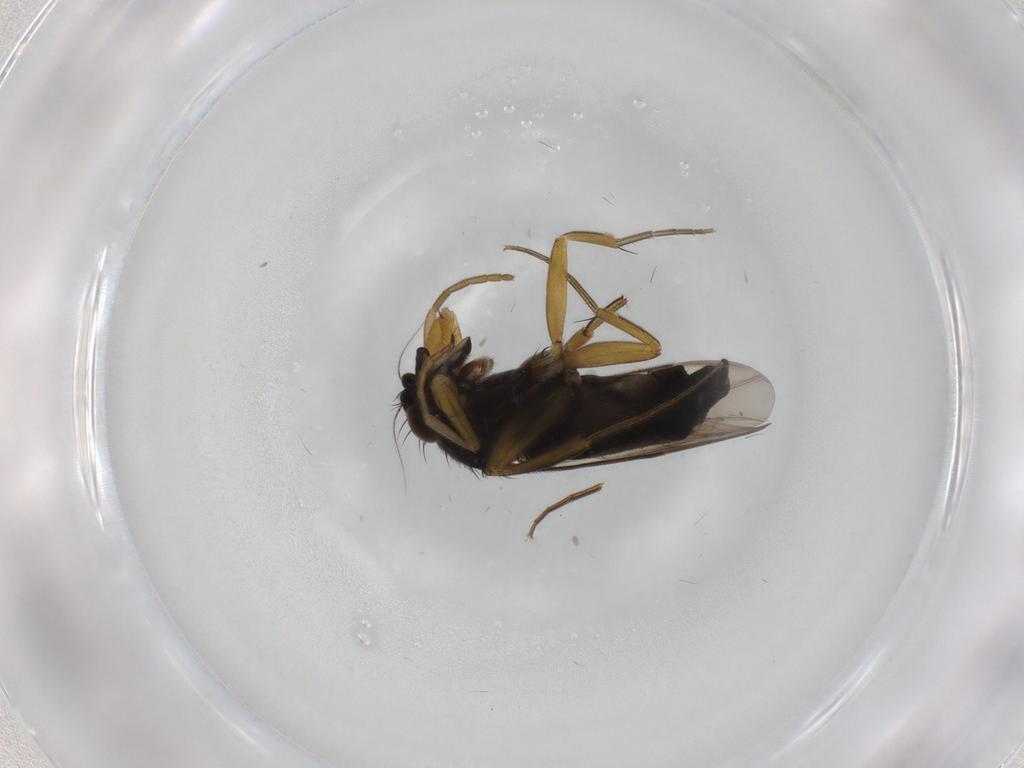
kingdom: Animalia
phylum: Arthropoda
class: Insecta
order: Diptera
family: Phoridae
